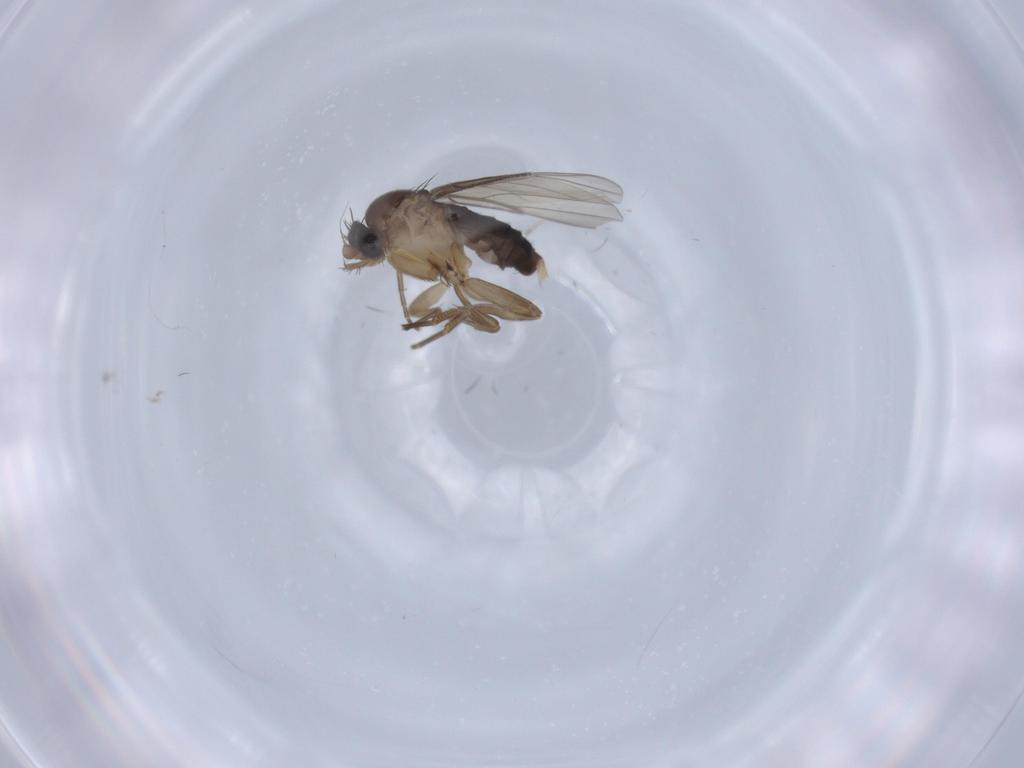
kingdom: Animalia
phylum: Arthropoda
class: Insecta
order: Diptera
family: Phoridae
